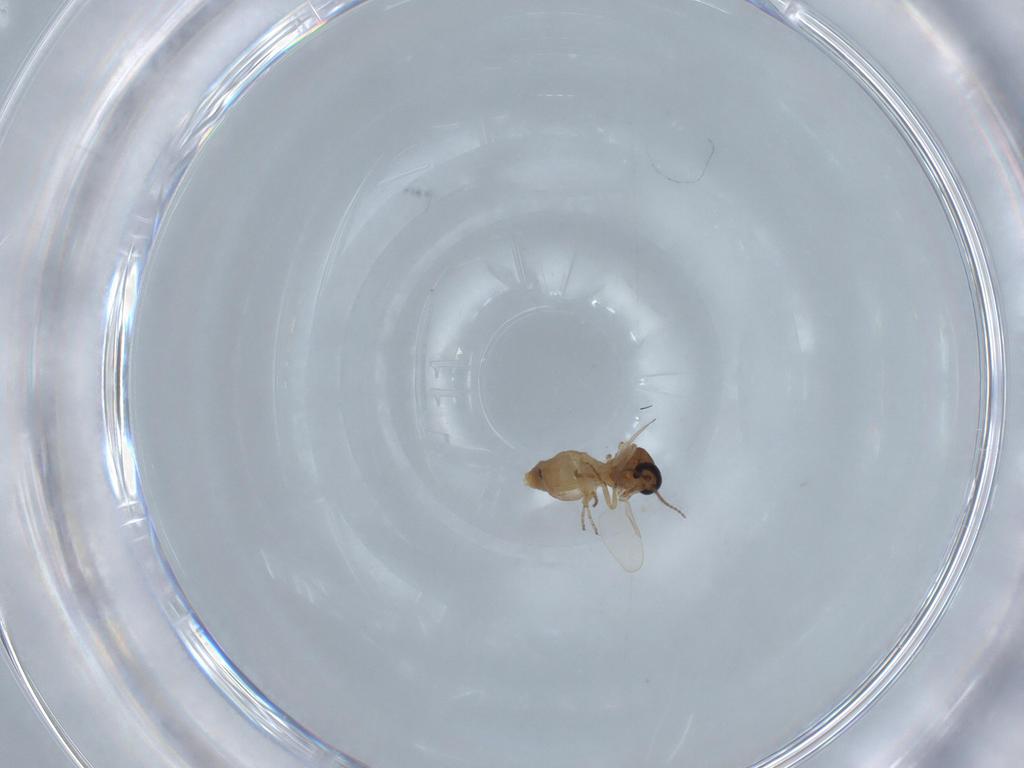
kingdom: Animalia
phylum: Arthropoda
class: Insecta
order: Diptera
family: Ceratopogonidae
